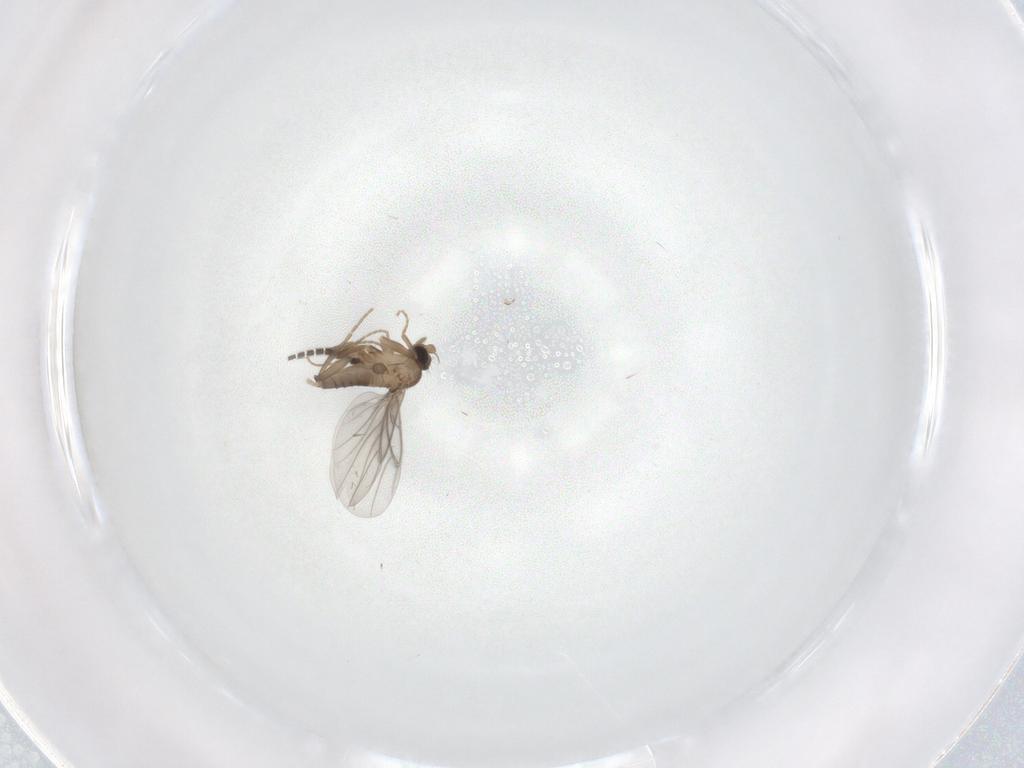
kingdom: Animalia
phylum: Arthropoda
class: Insecta
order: Diptera
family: Sciaridae
